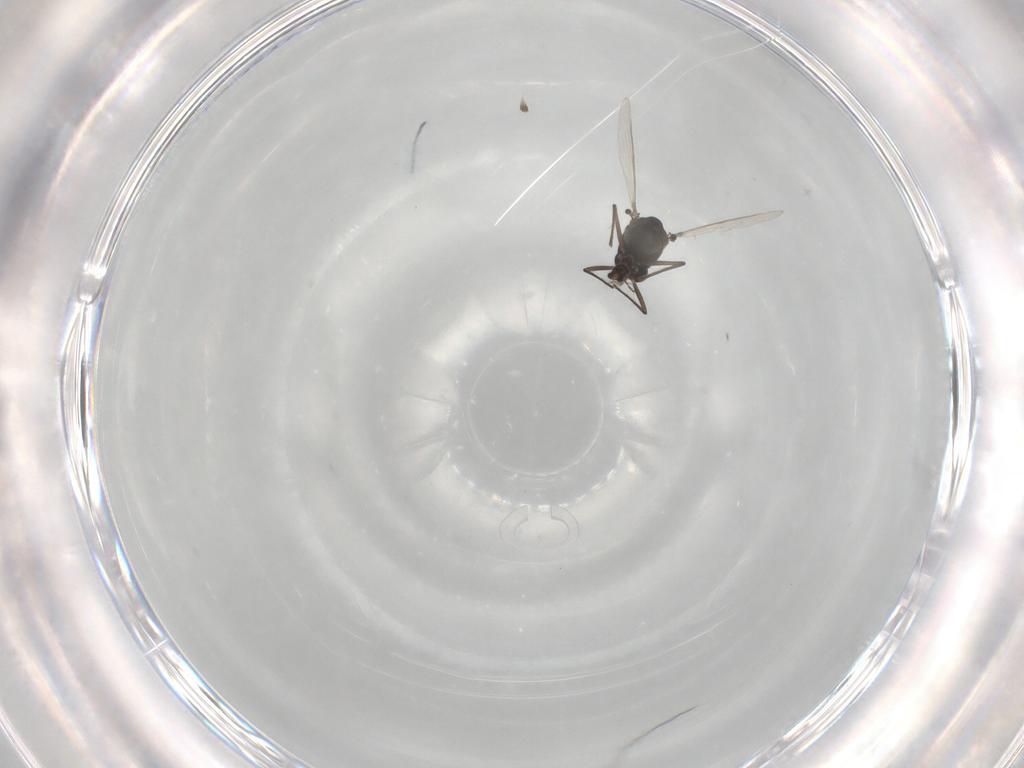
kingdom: Animalia
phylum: Arthropoda
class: Insecta
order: Diptera
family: Chironomidae
